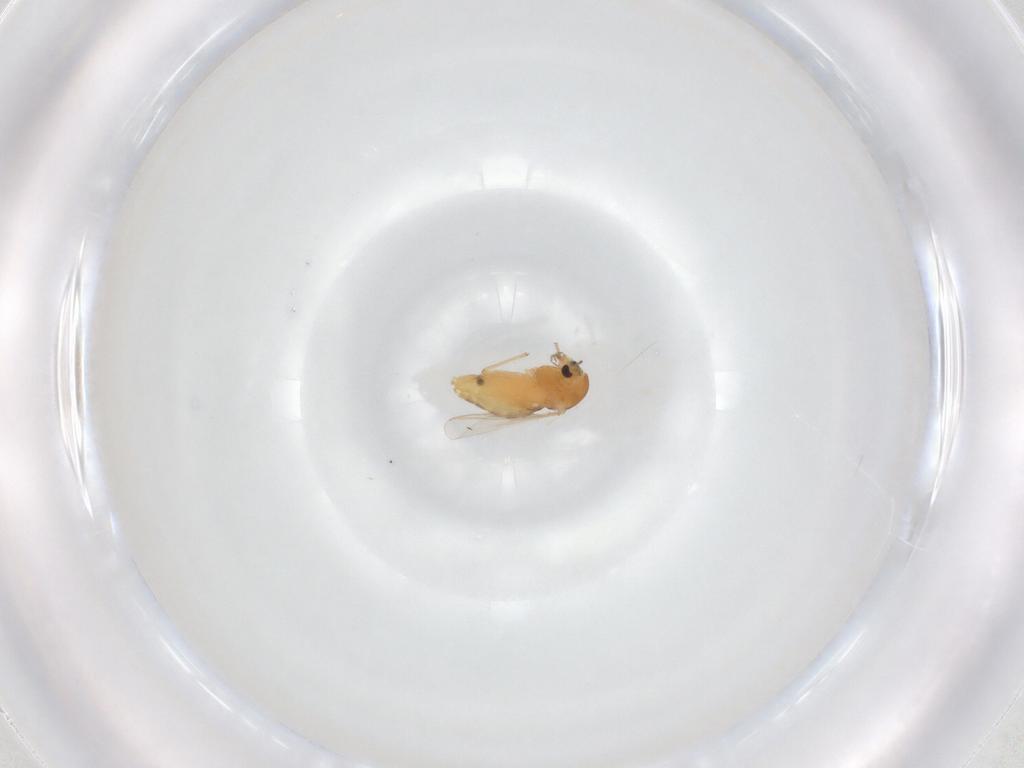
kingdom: Animalia
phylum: Arthropoda
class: Insecta
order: Diptera
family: Chironomidae
